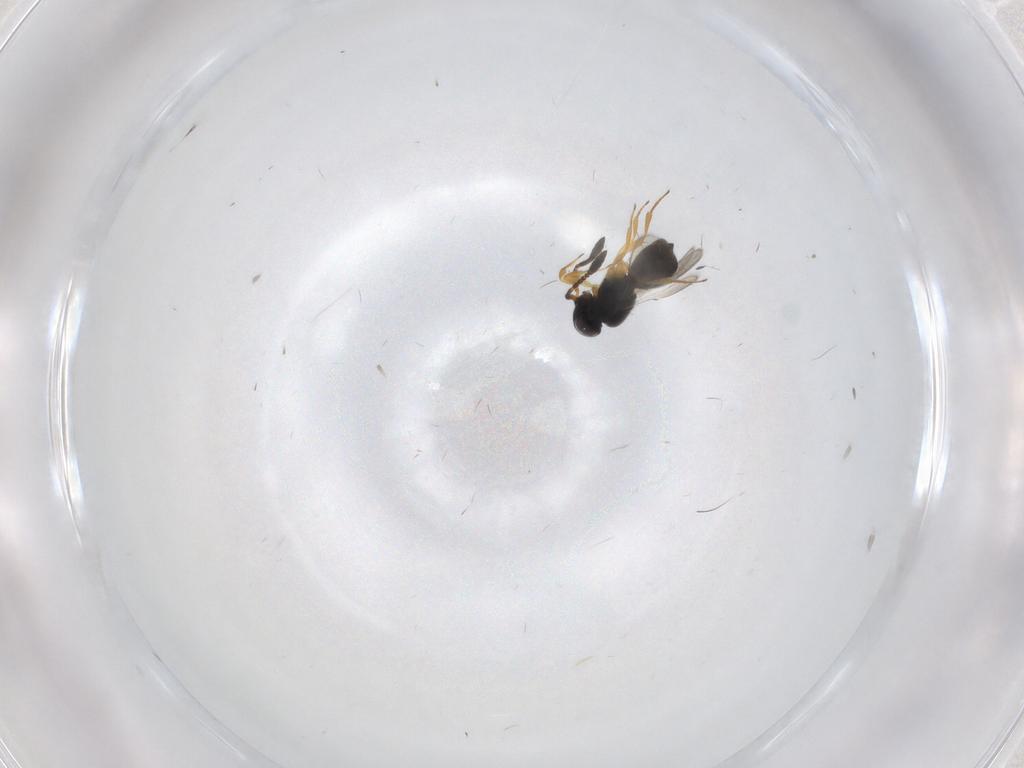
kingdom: Animalia
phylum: Arthropoda
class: Insecta
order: Hymenoptera
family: Scelionidae
